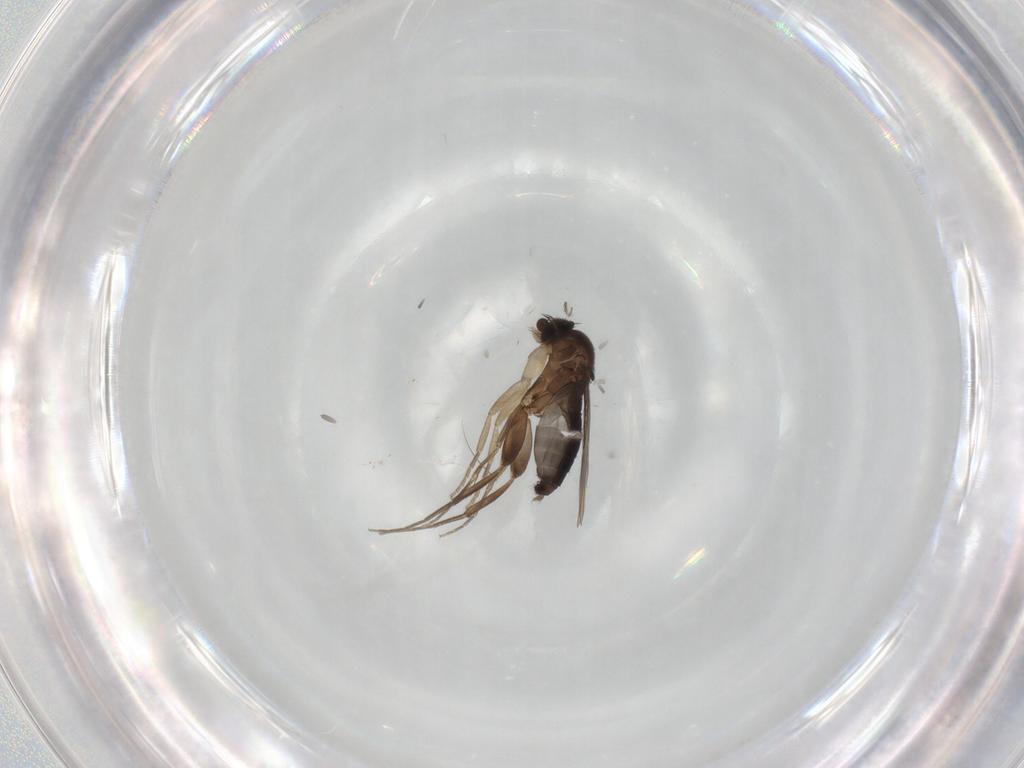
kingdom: Animalia
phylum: Arthropoda
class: Insecta
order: Diptera
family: Phoridae
